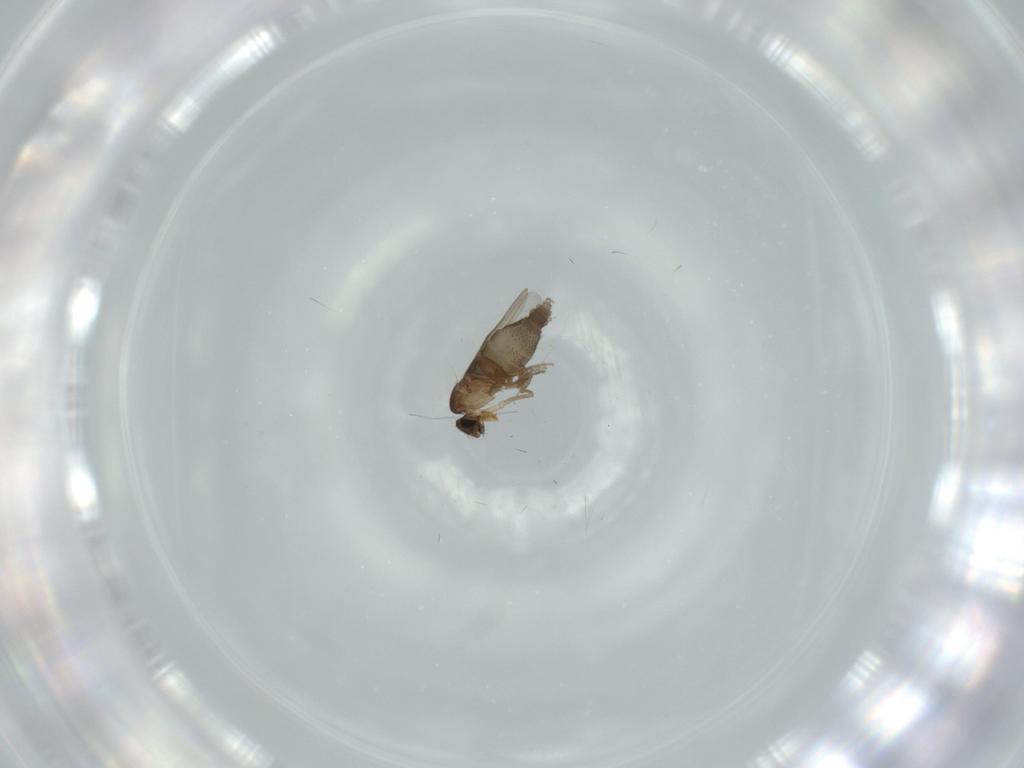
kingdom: Animalia
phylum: Arthropoda
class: Insecta
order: Diptera
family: Phoridae
